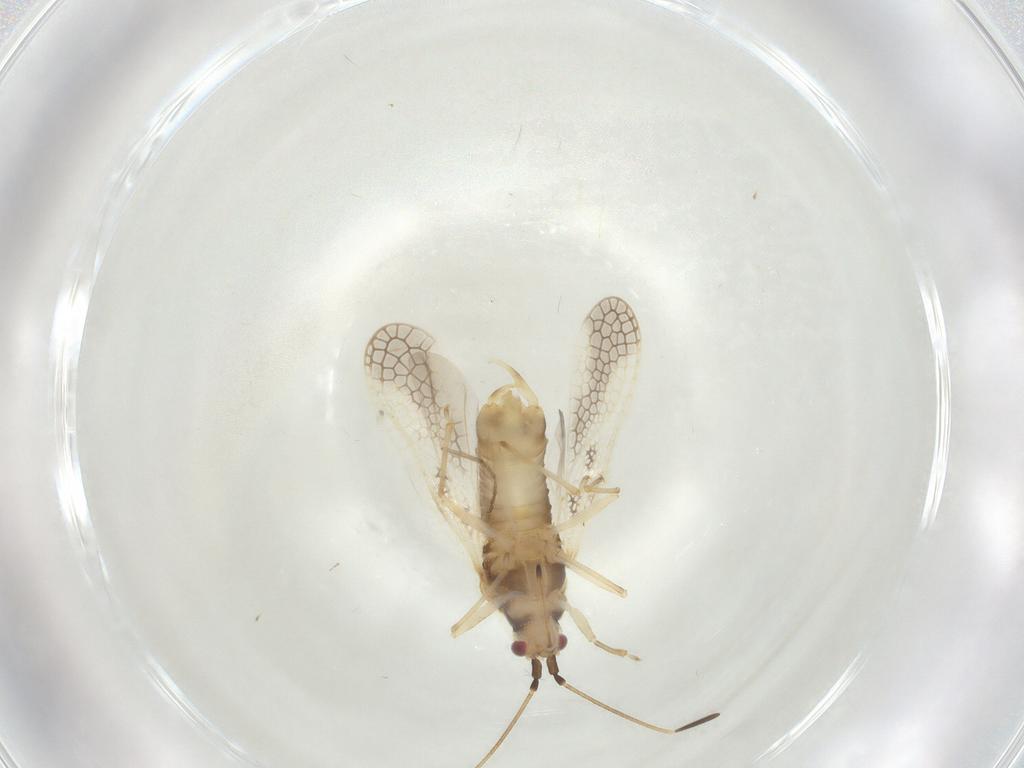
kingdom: Animalia
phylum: Arthropoda
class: Insecta
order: Hemiptera
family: Tingidae
